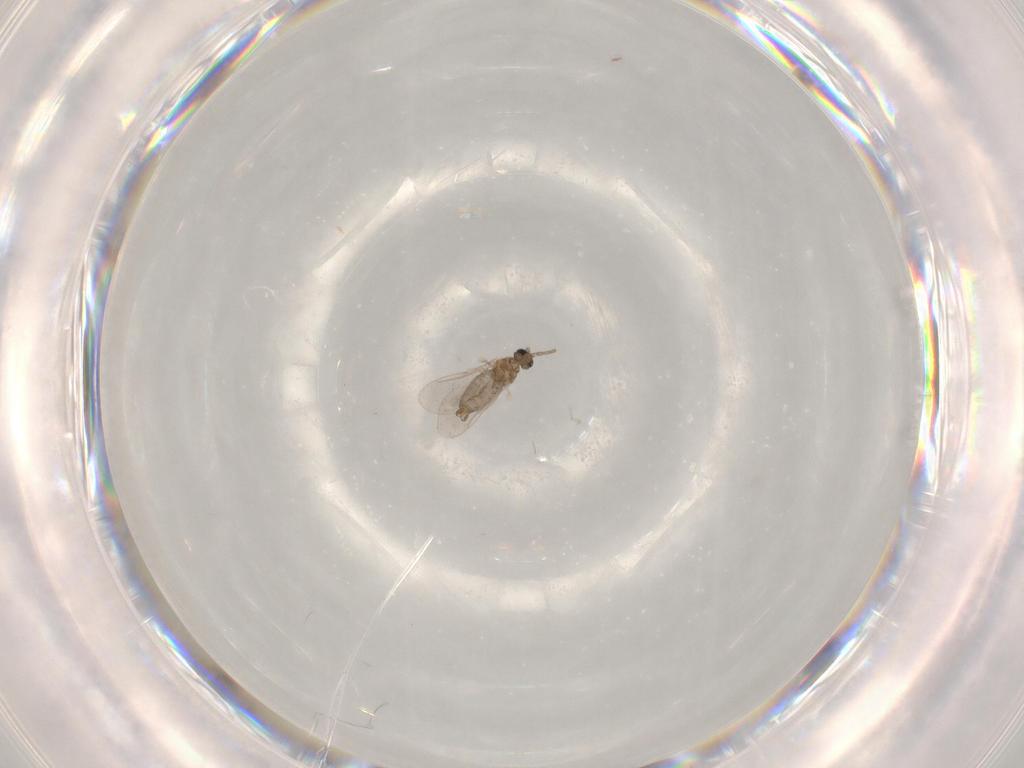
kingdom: Animalia
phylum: Arthropoda
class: Insecta
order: Diptera
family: Cecidomyiidae
